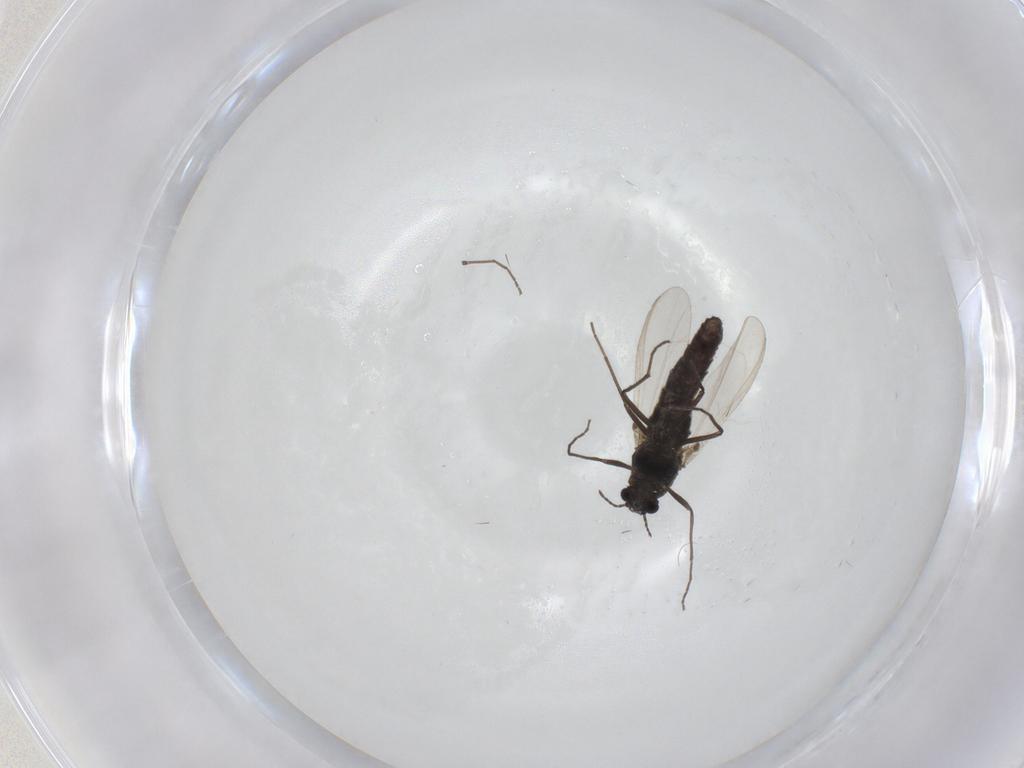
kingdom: Animalia
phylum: Arthropoda
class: Insecta
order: Diptera
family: Chironomidae
